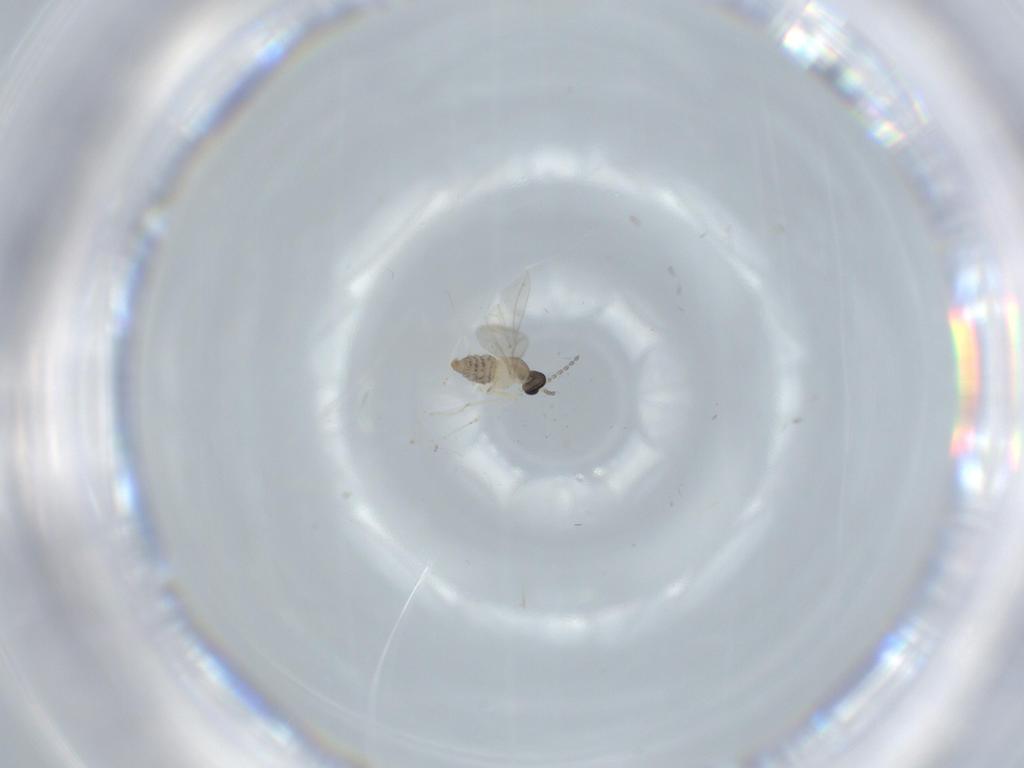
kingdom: Animalia
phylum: Arthropoda
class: Insecta
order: Diptera
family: Cecidomyiidae
